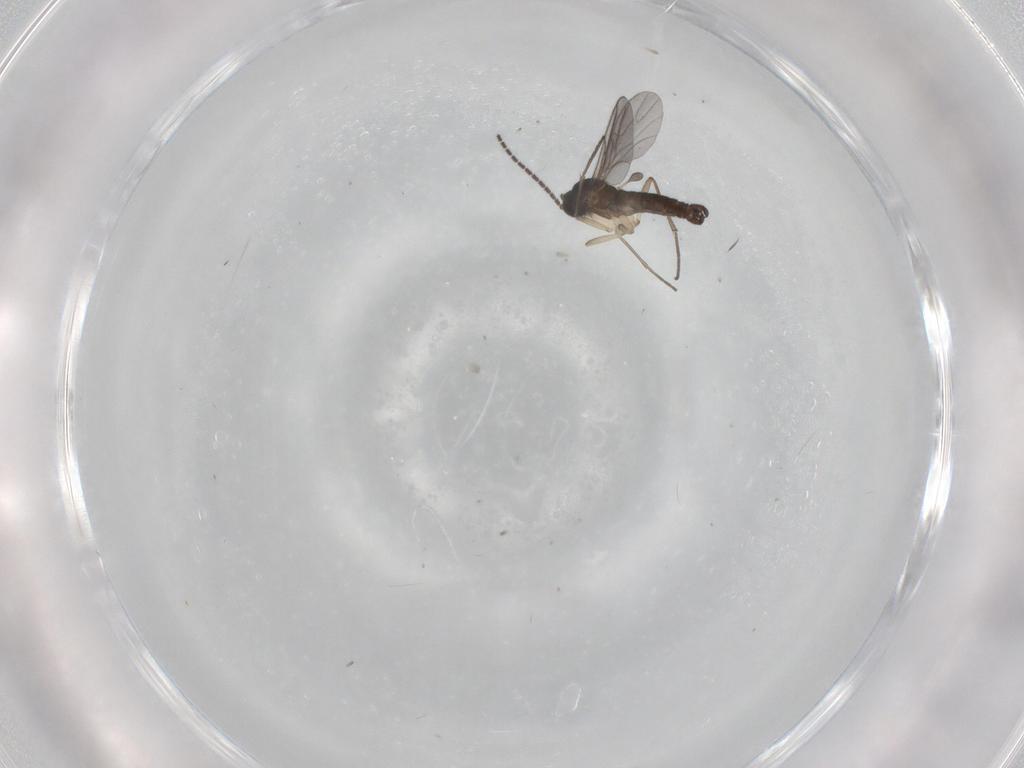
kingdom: Animalia
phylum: Arthropoda
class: Insecta
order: Diptera
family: Sciaridae
